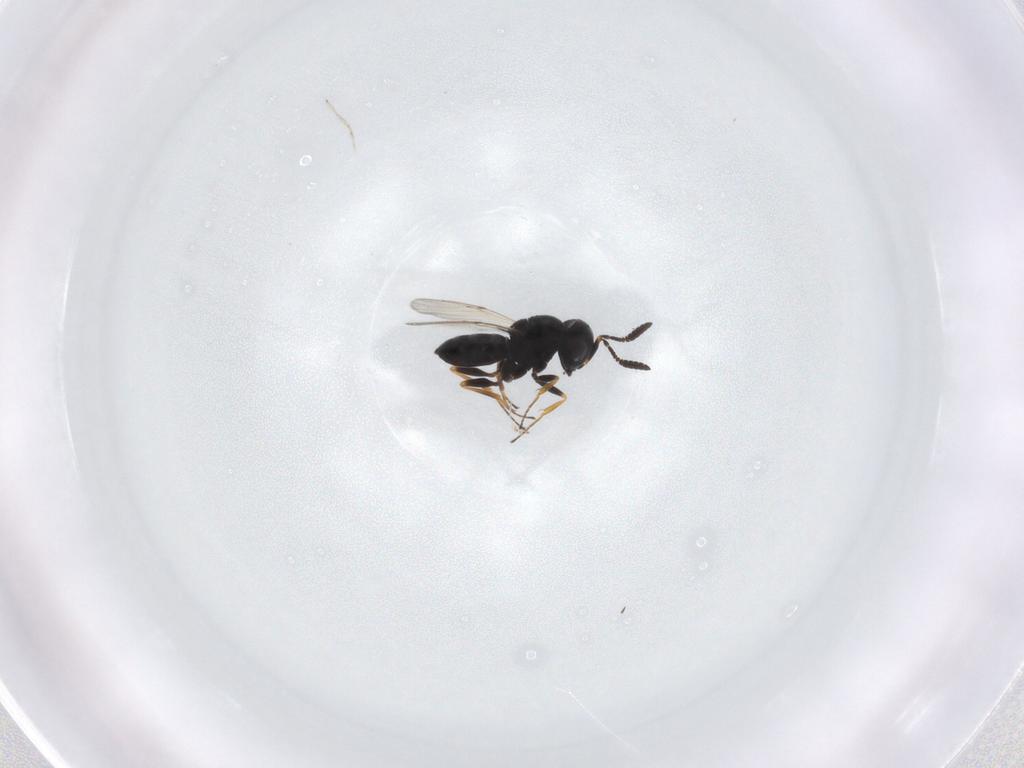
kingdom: Animalia
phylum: Arthropoda
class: Insecta
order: Hymenoptera
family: Scelionidae
